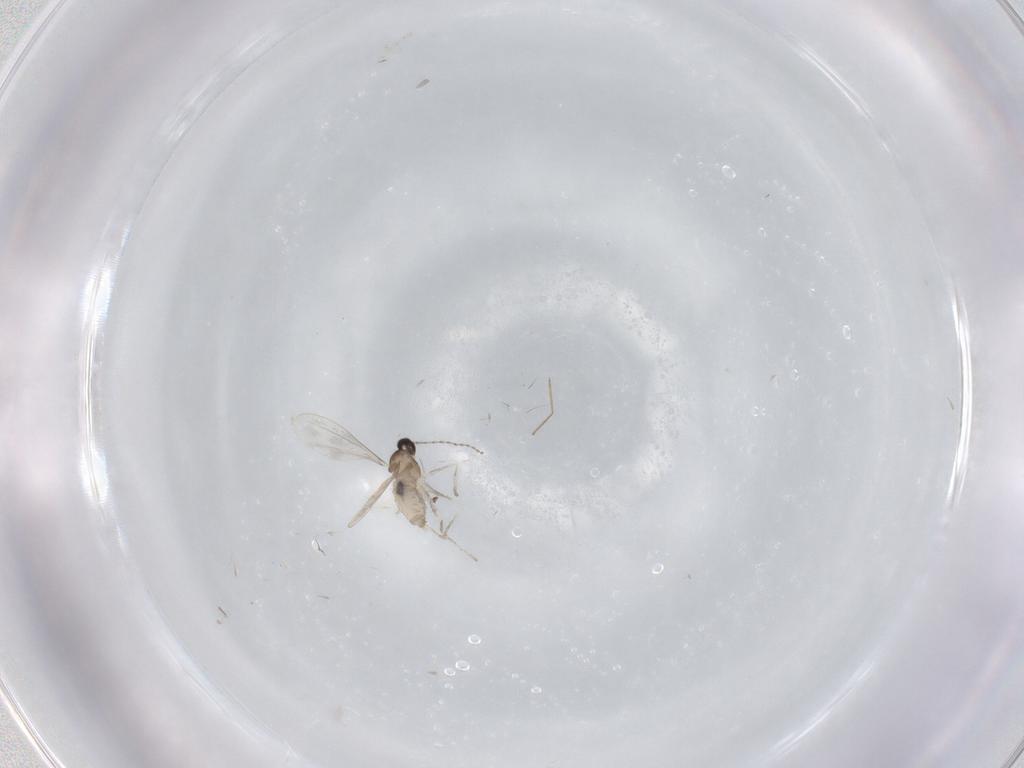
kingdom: Animalia
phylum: Arthropoda
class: Insecta
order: Diptera
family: Cecidomyiidae
